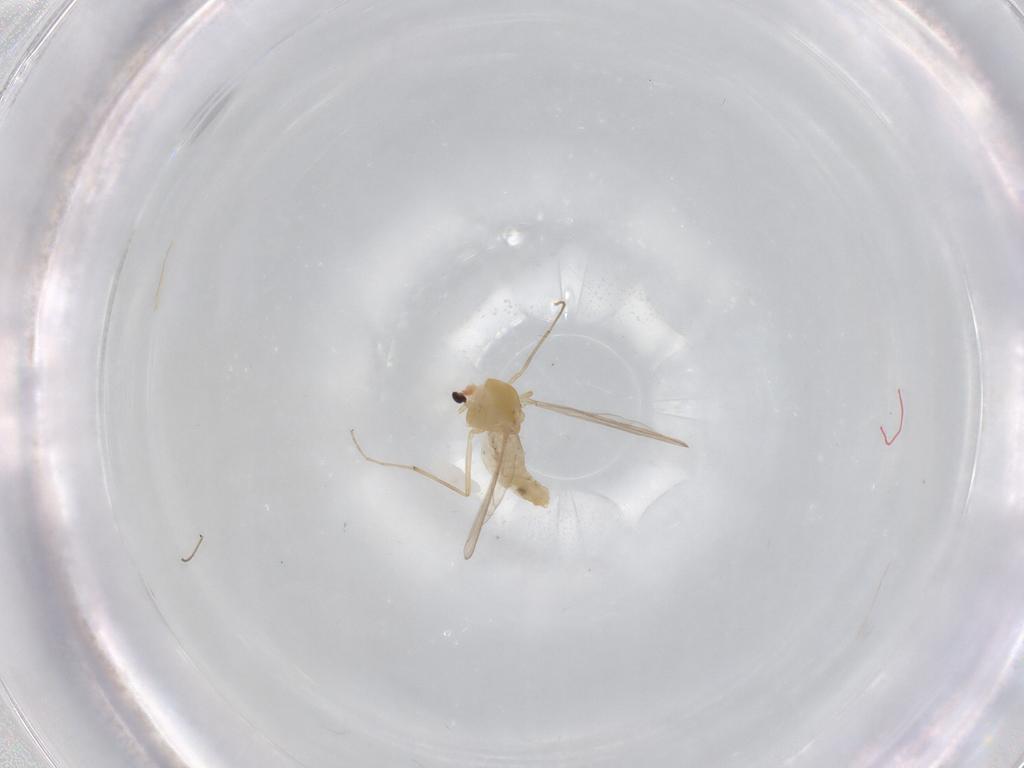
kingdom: Animalia
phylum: Arthropoda
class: Insecta
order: Diptera
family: Chironomidae
